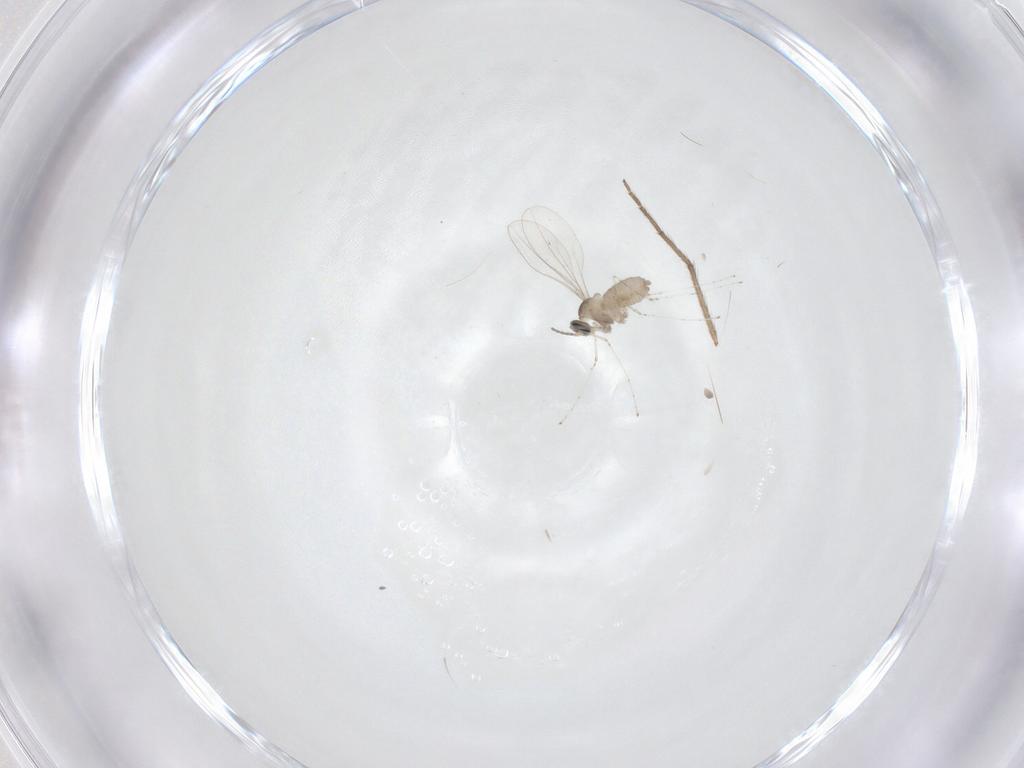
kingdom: Animalia
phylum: Arthropoda
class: Insecta
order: Diptera
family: Cecidomyiidae
